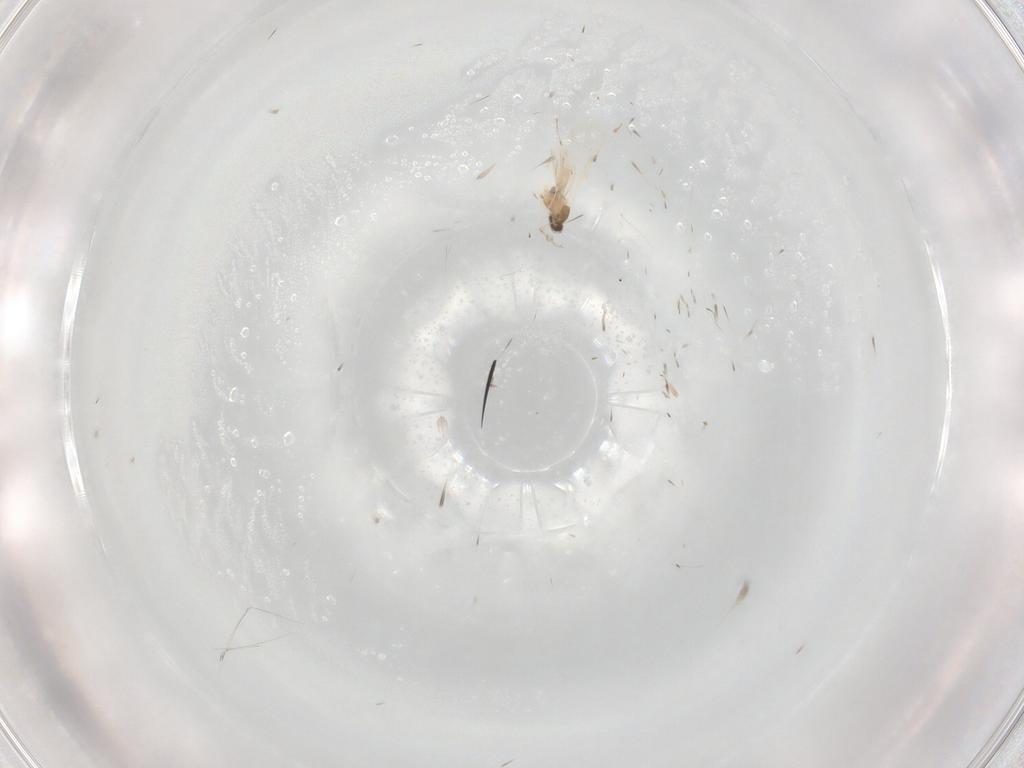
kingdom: Animalia
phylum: Arthropoda
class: Insecta
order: Diptera
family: Cecidomyiidae
